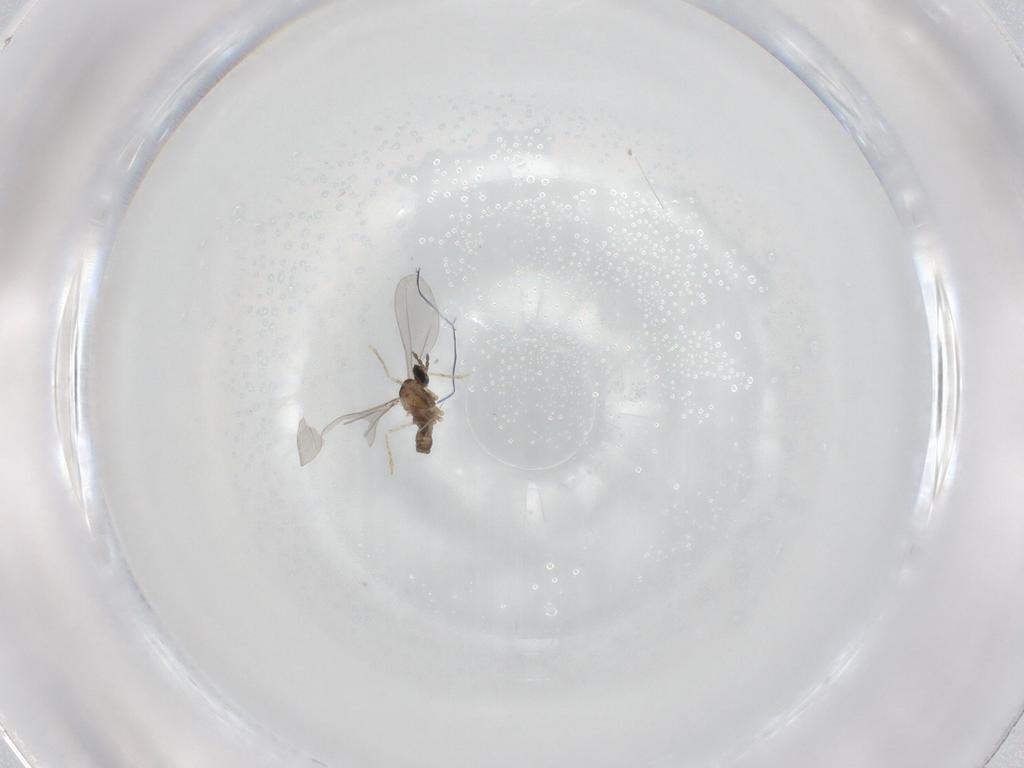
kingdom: Animalia
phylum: Arthropoda
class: Insecta
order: Diptera
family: Cecidomyiidae
